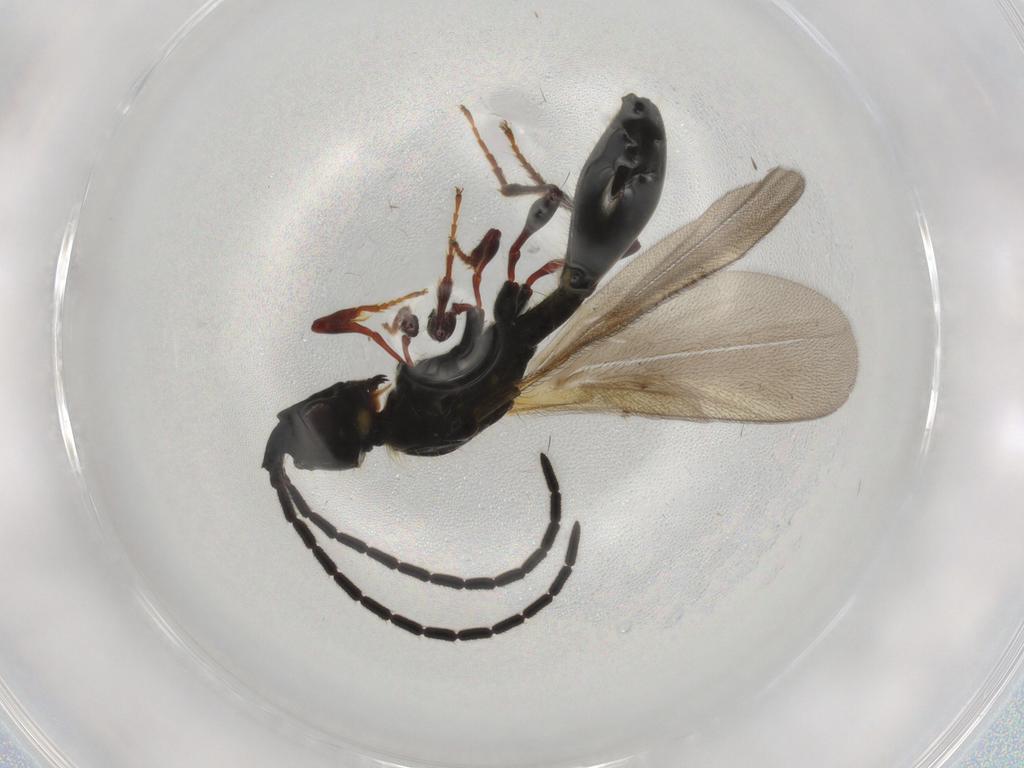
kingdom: Animalia
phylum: Arthropoda
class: Insecta
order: Hymenoptera
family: Diapriidae
